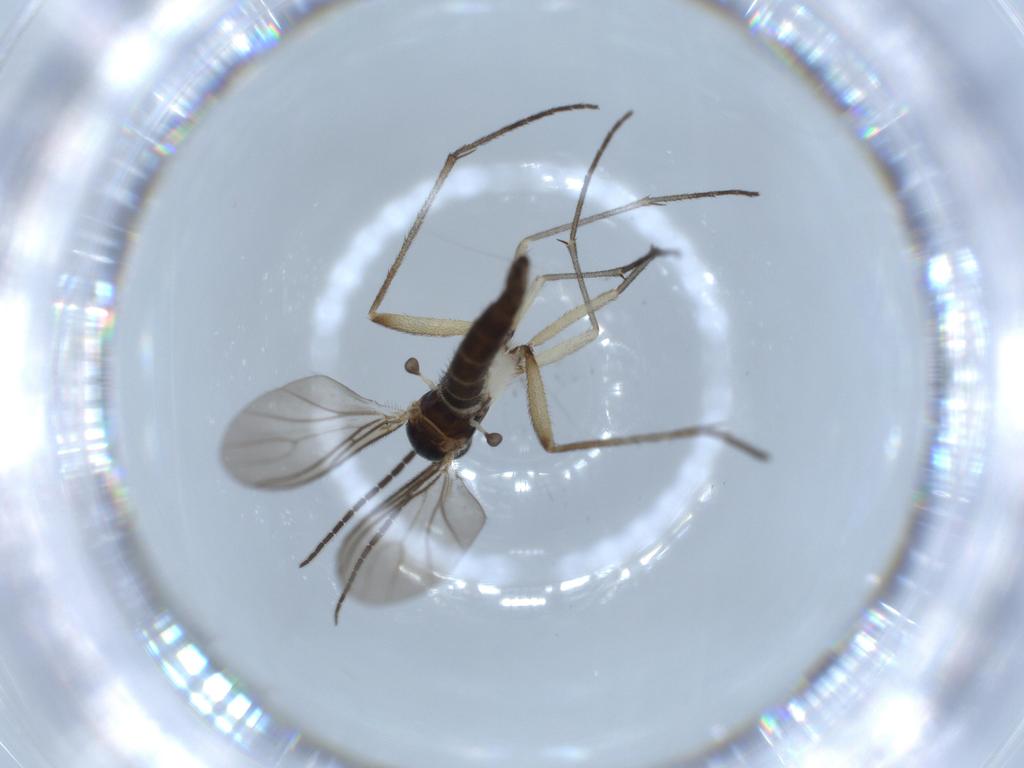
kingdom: Animalia
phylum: Arthropoda
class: Insecta
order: Diptera
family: Sciaridae
